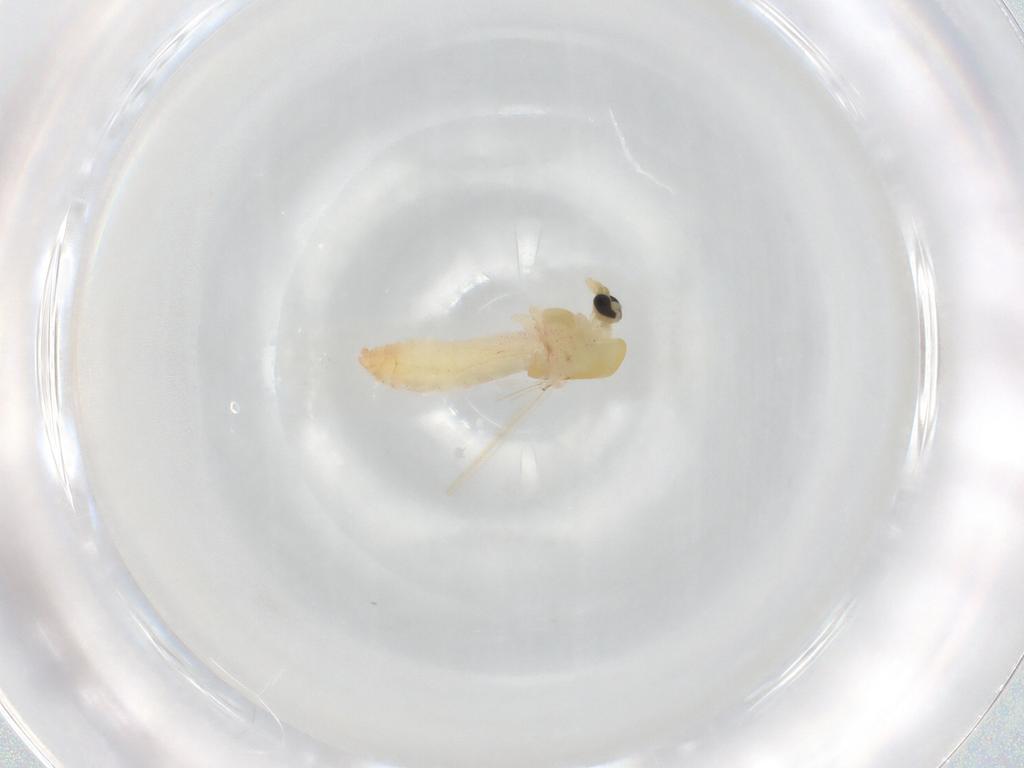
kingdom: Animalia
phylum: Arthropoda
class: Insecta
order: Diptera
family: Chironomidae
